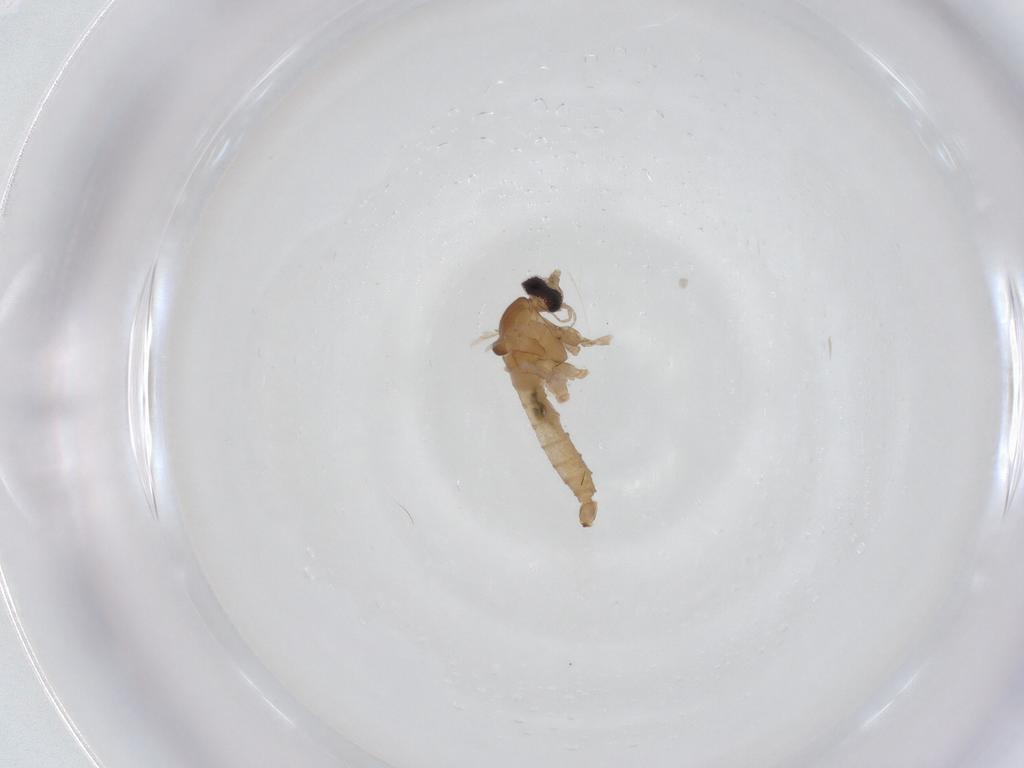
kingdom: Animalia
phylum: Arthropoda
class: Insecta
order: Diptera
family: Cecidomyiidae
